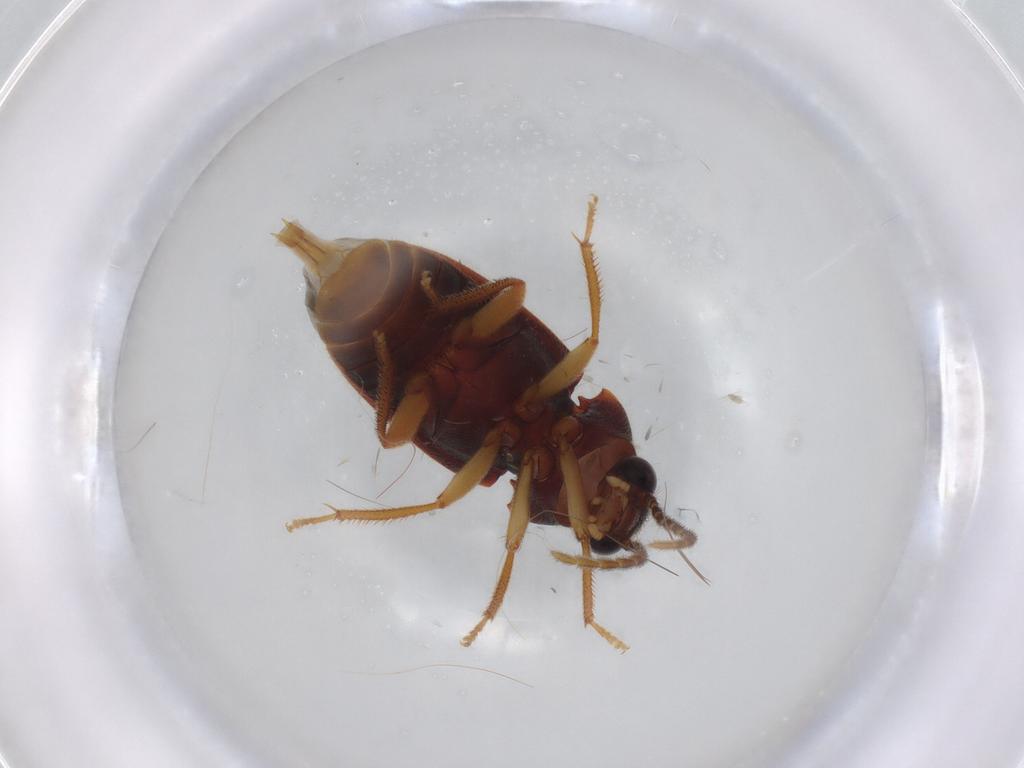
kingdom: Animalia
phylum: Arthropoda
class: Insecta
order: Coleoptera
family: Ptilodactylidae
